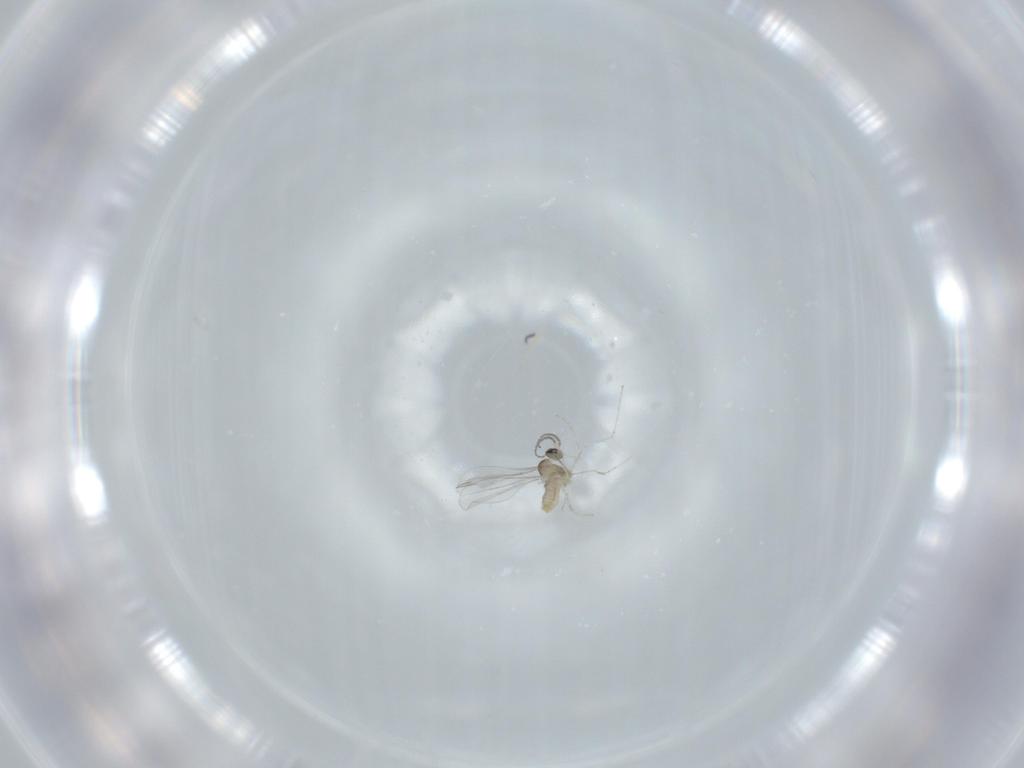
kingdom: Animalia
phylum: Arthropoda
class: Insecta
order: Diptera
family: Cecidomyiidae
